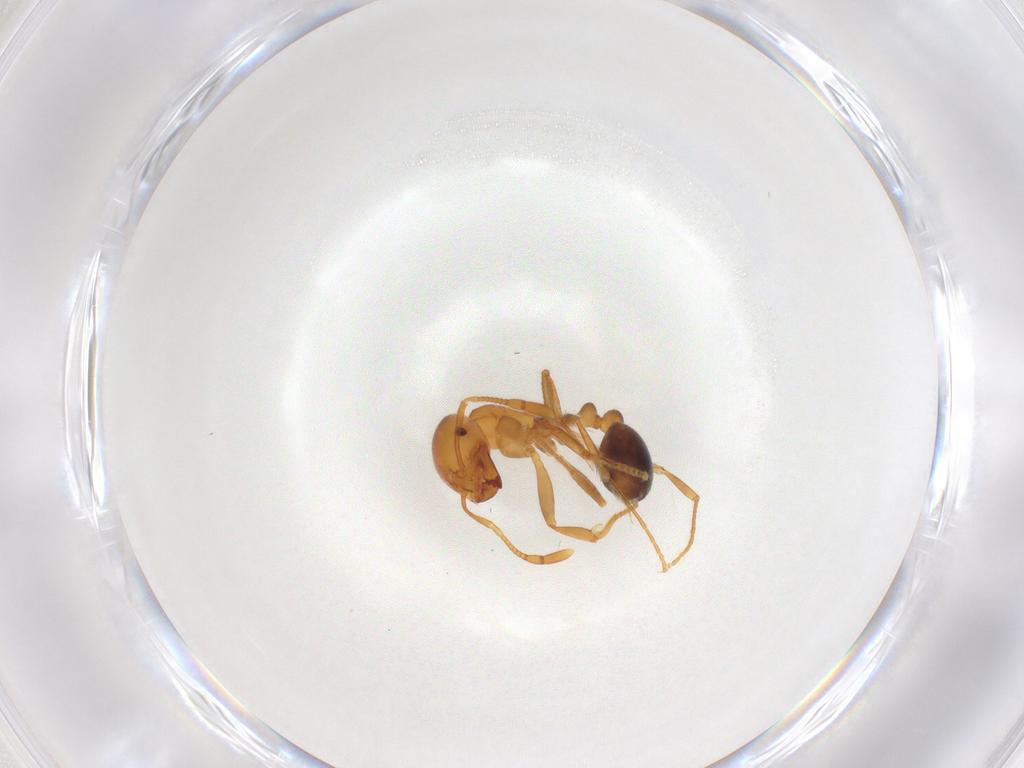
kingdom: Animalia
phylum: Arthropoda
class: Insecta
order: Hymenoptera
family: Formicidae
